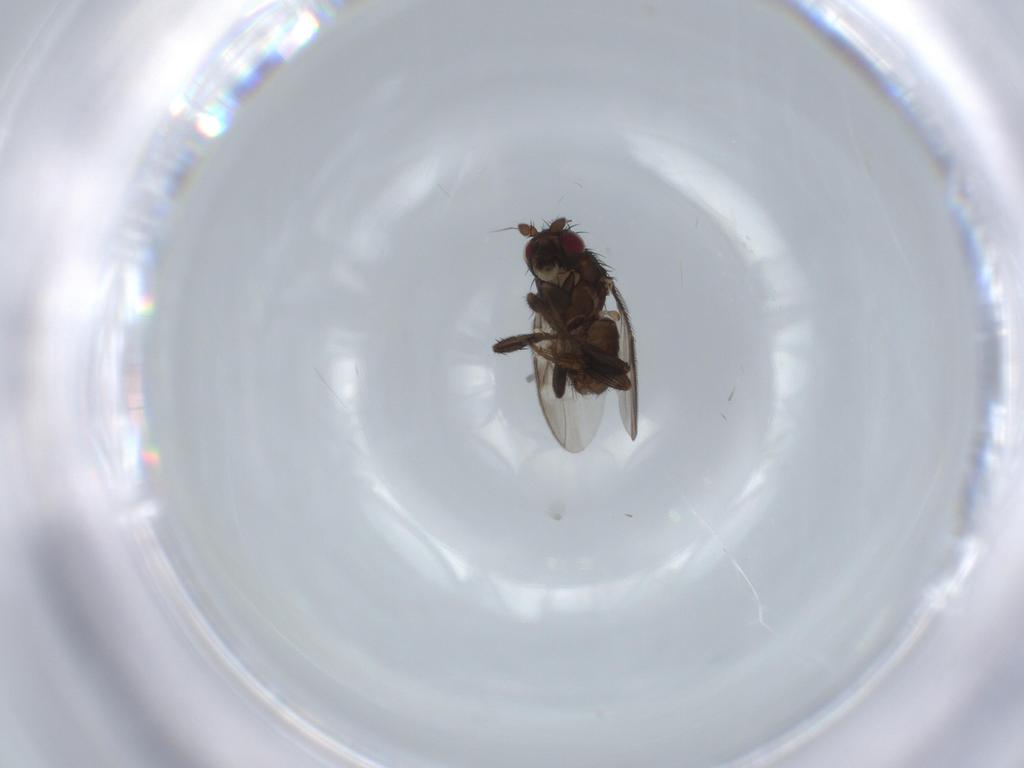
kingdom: Animalia
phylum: Arthropoda
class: Insecta
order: Diptera
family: Sphaeroceridae
